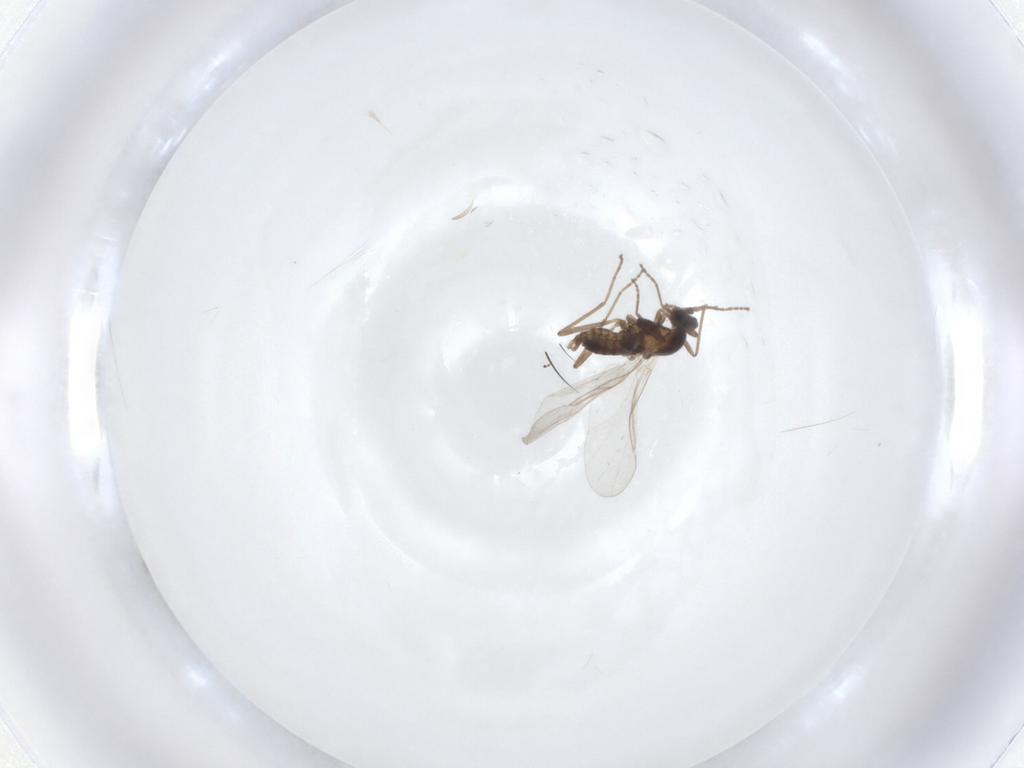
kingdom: Animalia
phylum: Arthropoda
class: Insecta
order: Diptera
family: Cecidomyiidae
